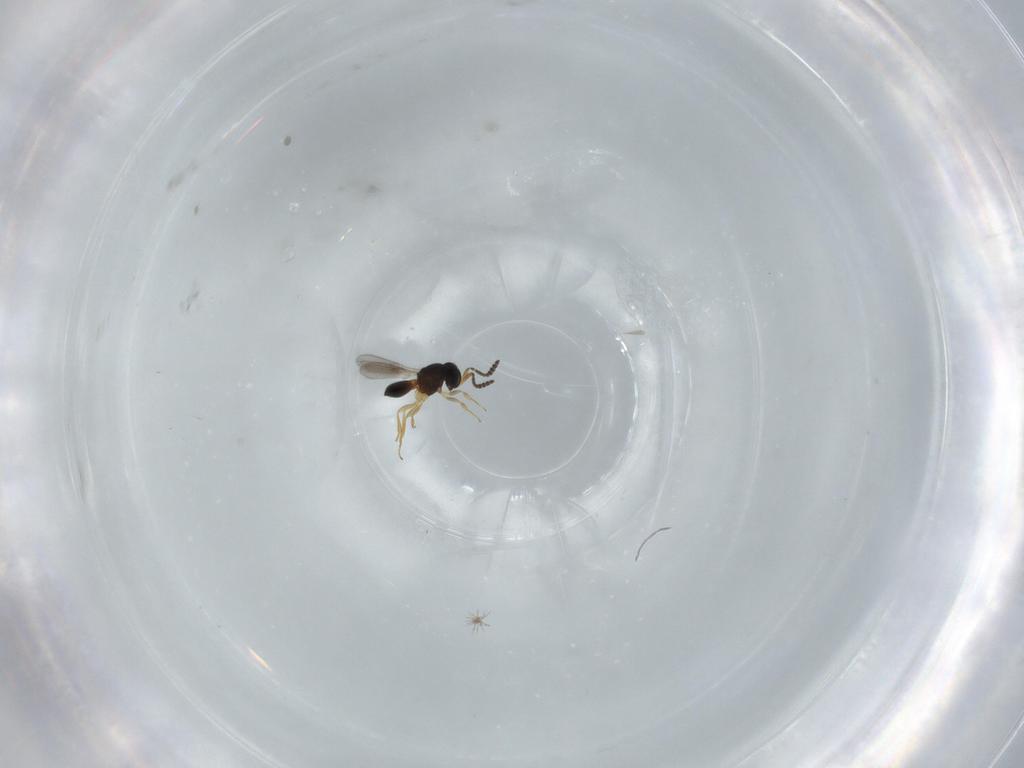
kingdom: Animalia
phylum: Arthropoda
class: Insecta
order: Hymenoptera
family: Scelionidae
